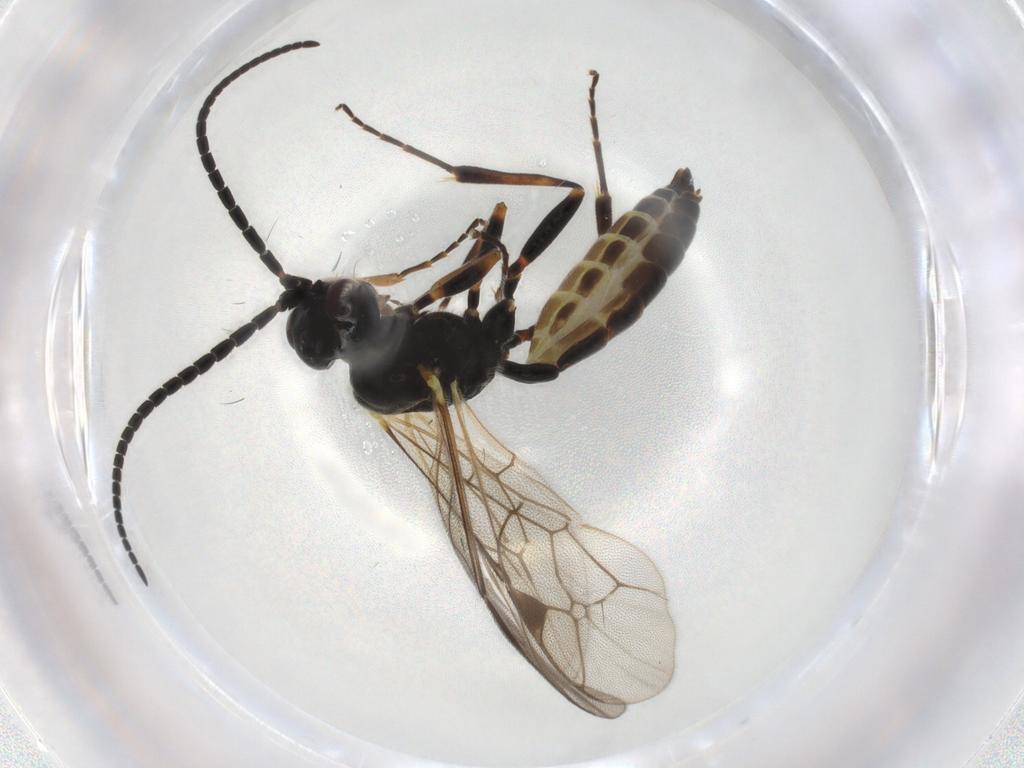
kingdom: Animalia
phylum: Arthropoda
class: Insecta
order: Hymenoptera
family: Ichneumonidae
